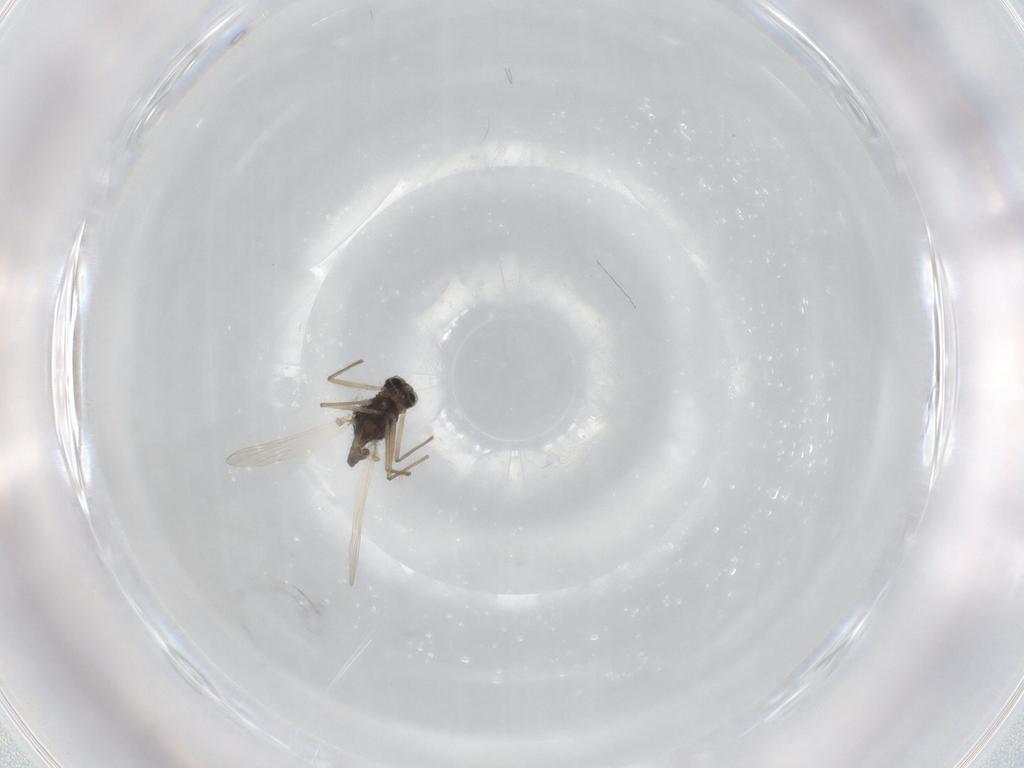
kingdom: Animalia
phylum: Arthropoda
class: Insecta
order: Diptera
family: Chironomidae
